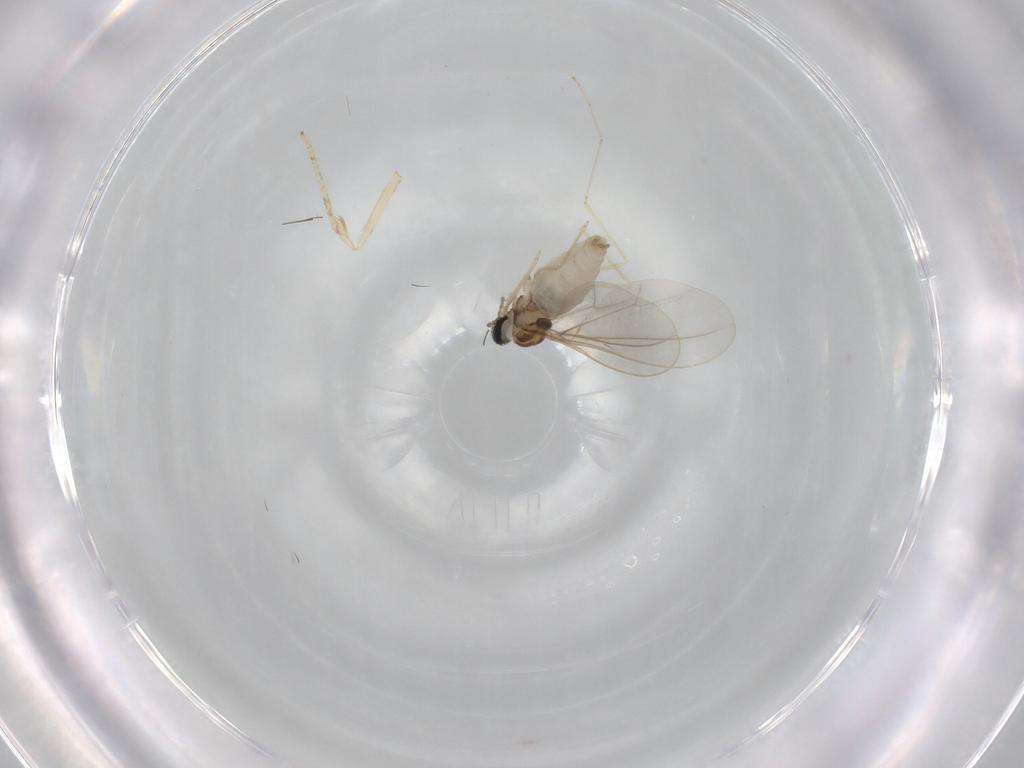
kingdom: Animalia
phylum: Arthropoda
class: Insecta
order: Diptera
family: Cecidomyiidae
